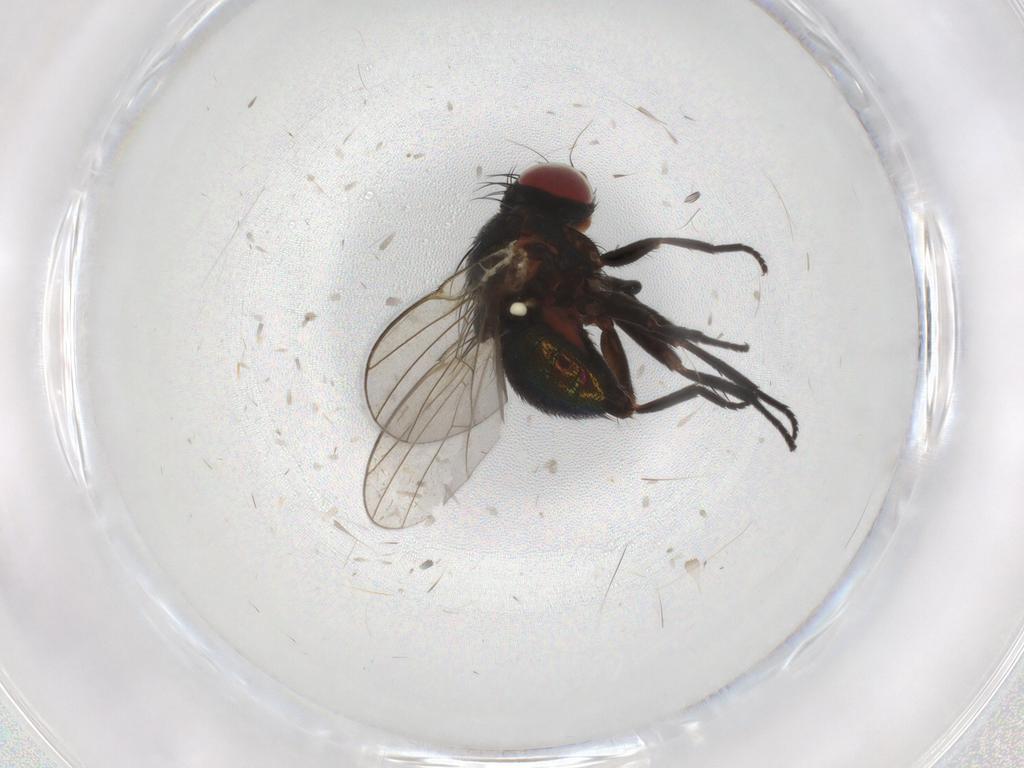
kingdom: Animalia
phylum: Arthropoda
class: Insecta
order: Diptera
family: Agromyzidae
